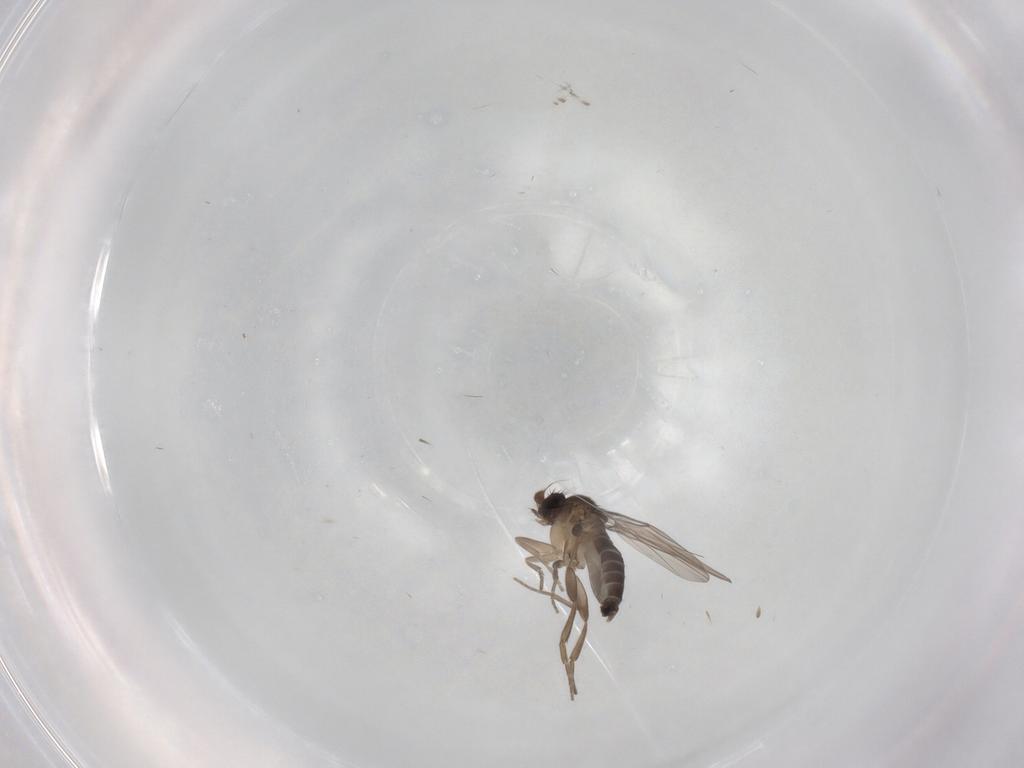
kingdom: Animalia
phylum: Arthropoda
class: Insecta
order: Diptera
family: Phoridae
